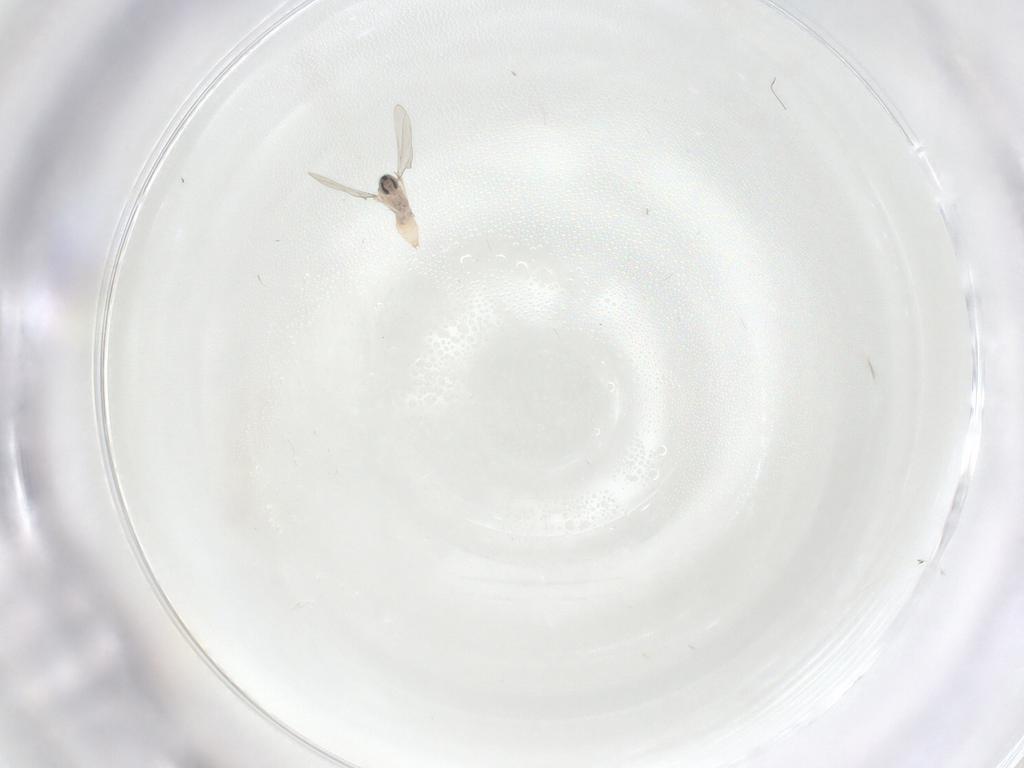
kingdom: Animalia
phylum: Arthropoda
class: Insecta
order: Diptera
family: Cecidomyiidae
